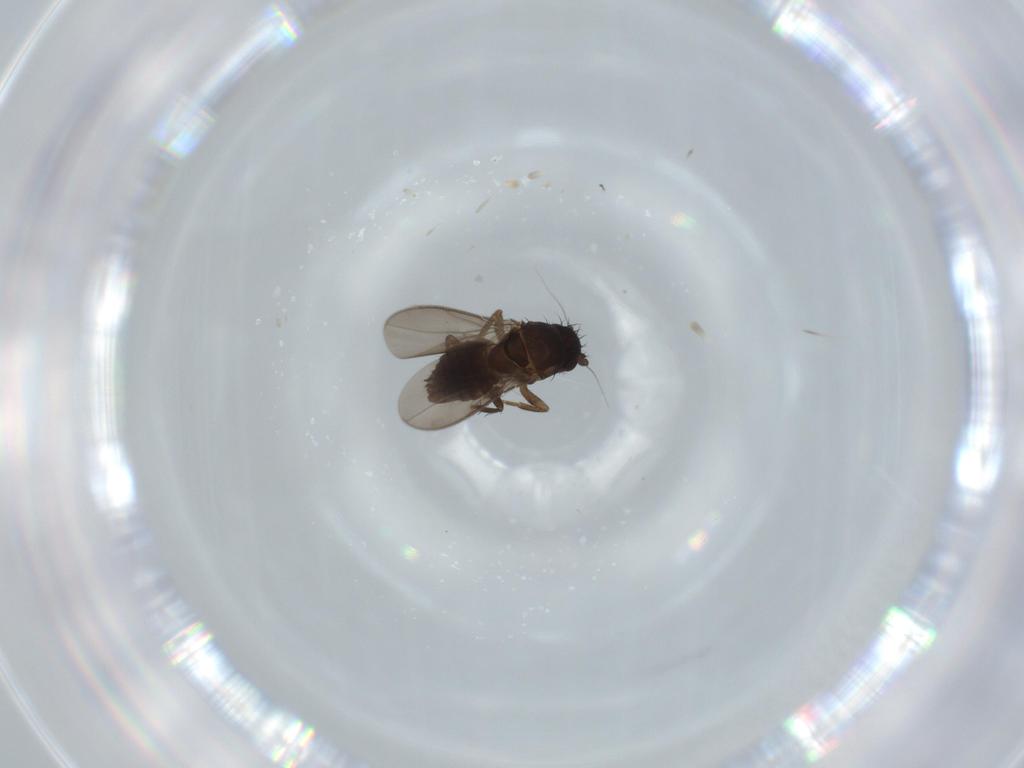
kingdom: Animalia
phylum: Arthropoda
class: Insecta
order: Diptera
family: Sphaeroceridae
